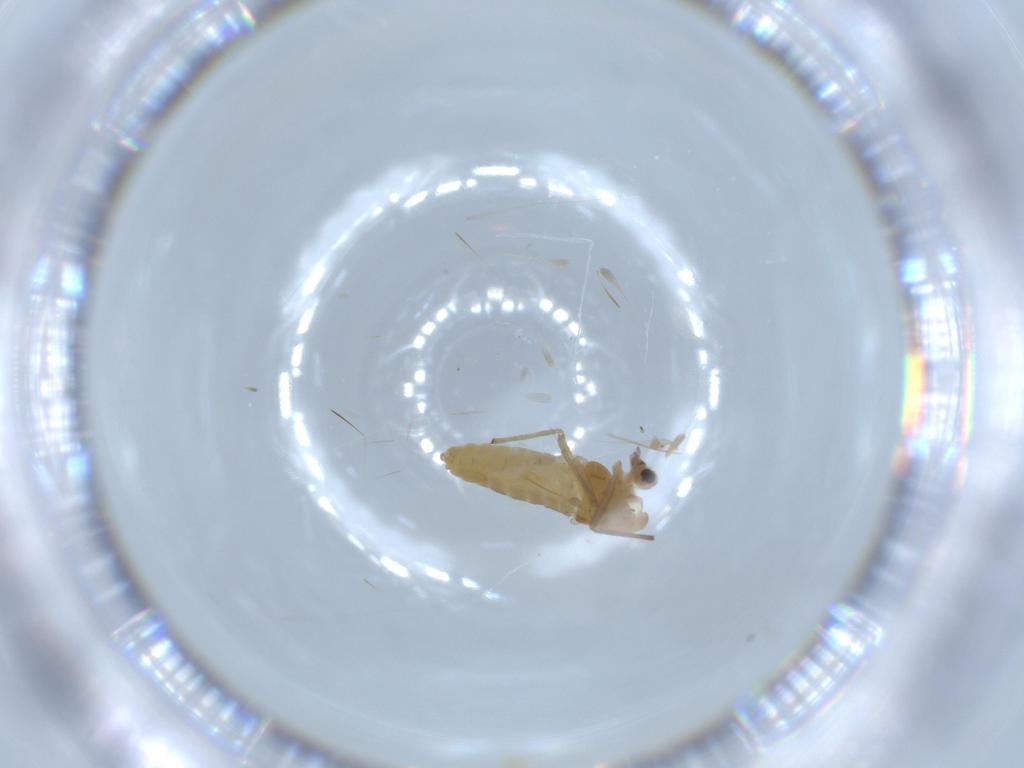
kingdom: Animalia
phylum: Arthropoda
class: Insecta
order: Diptera
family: Chironomidae
